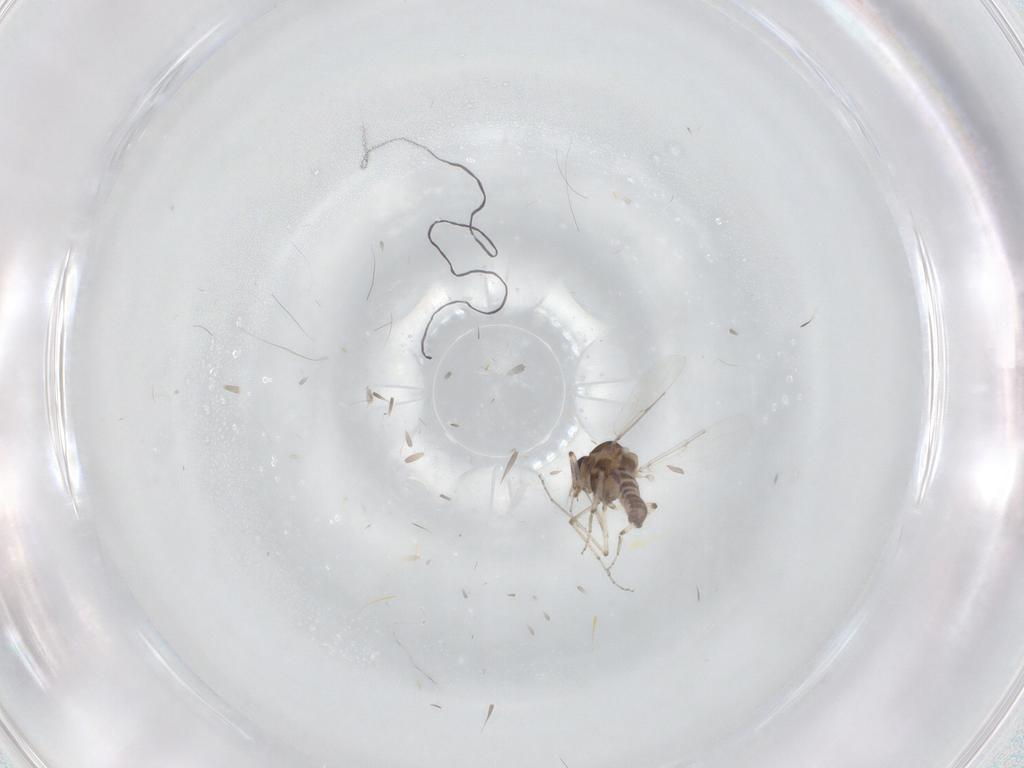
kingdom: Animalia
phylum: Arthropoda
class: Insecta
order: Diptera
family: Ceratopogonidae
